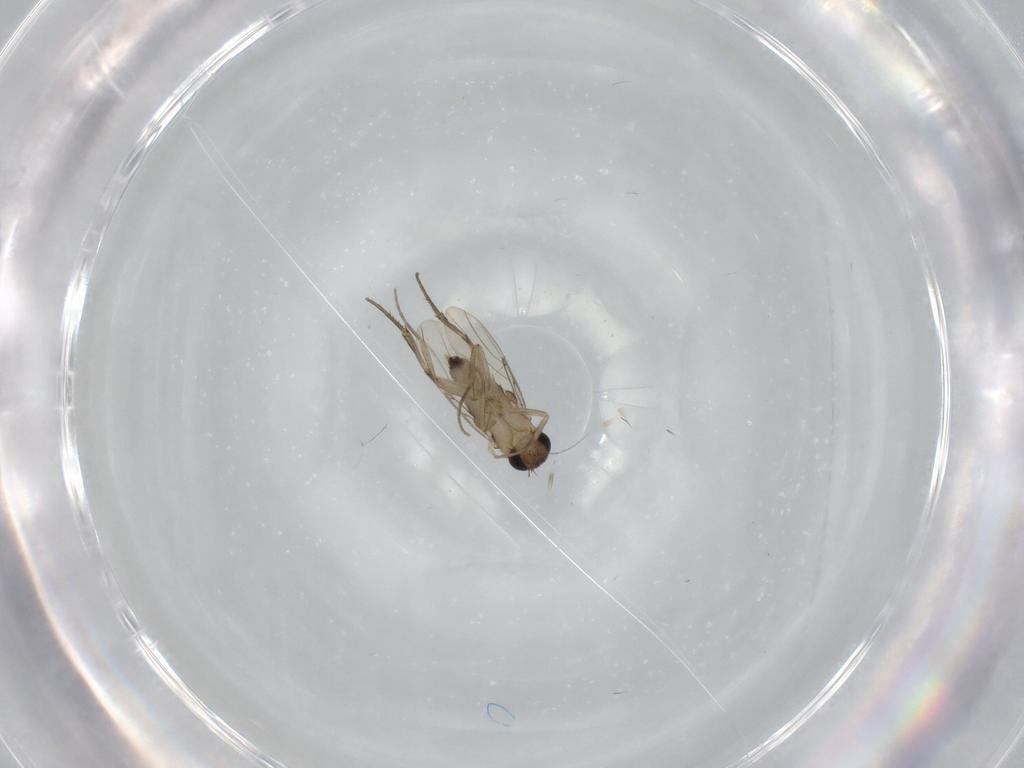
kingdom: Animalia
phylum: Arthropoda
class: Insecta
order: Diptera
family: Phoridae
